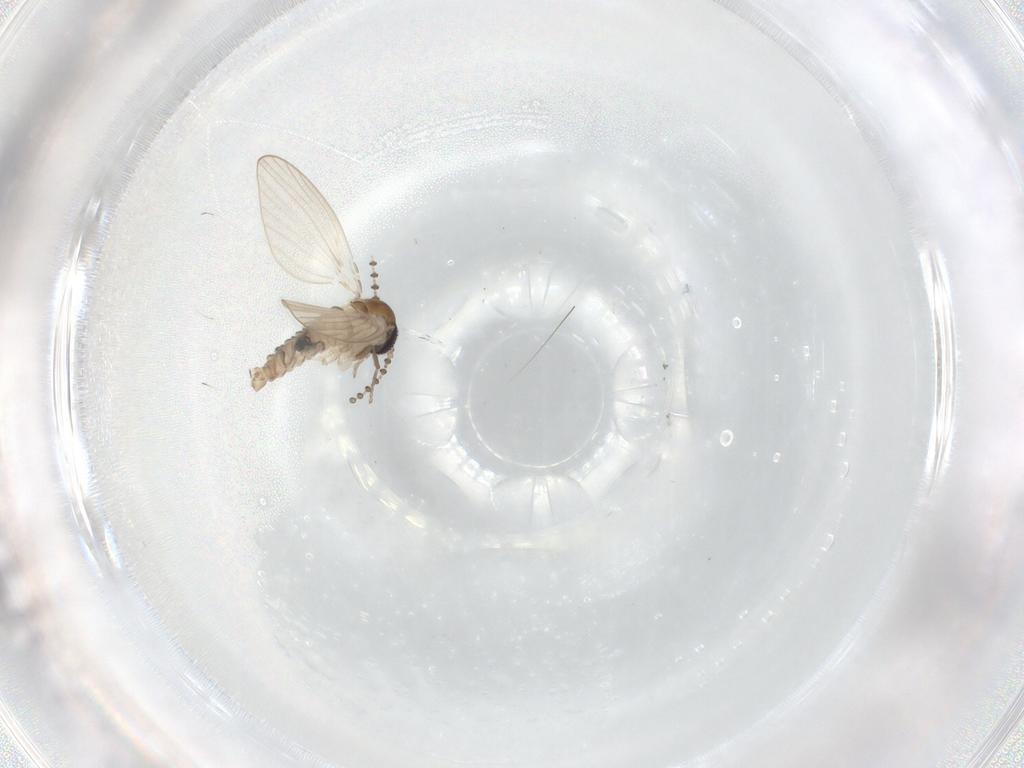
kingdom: Animalia
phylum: Arthropoda
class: Insecta
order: Diptera
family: Psychodidae
